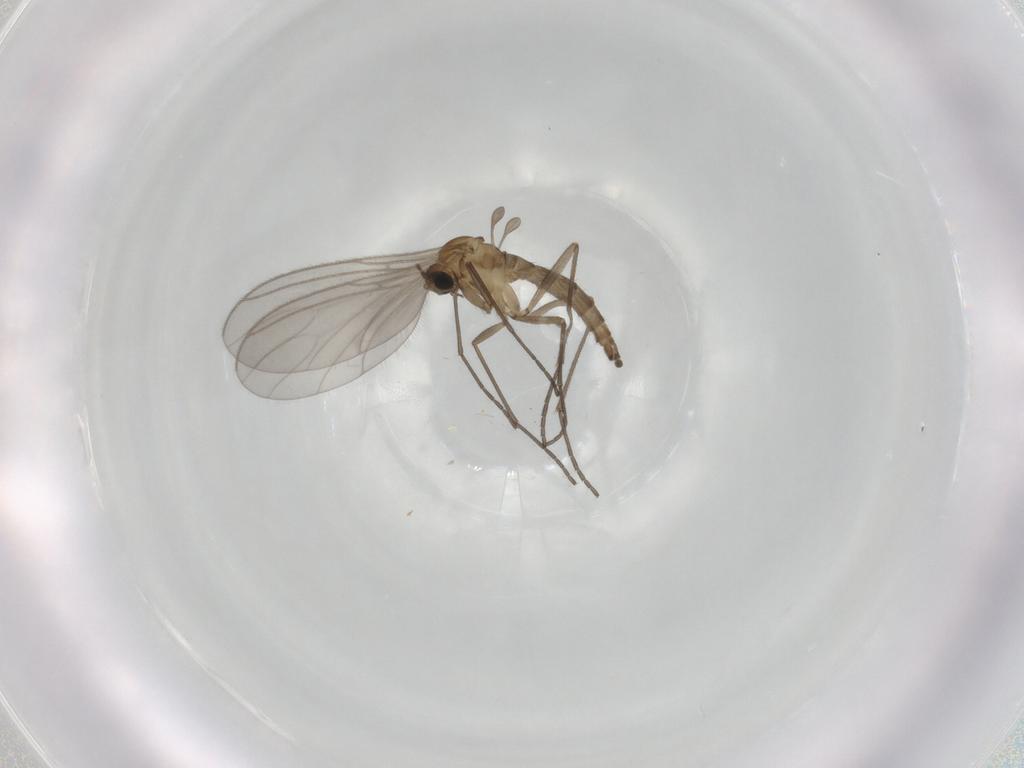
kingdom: Animalia
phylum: Arthropoda
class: Insecta
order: Diptera
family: Sciaridae
